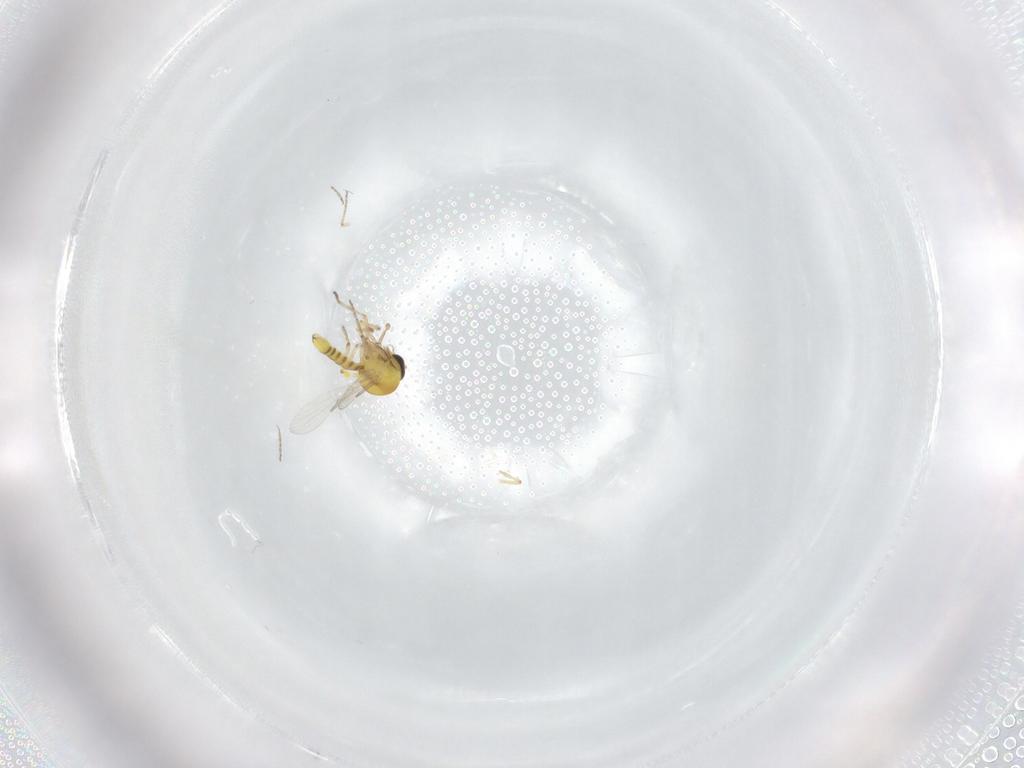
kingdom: Animalia
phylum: Arthropoda
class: Insecta
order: Diptera
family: Ceratopogonidae
